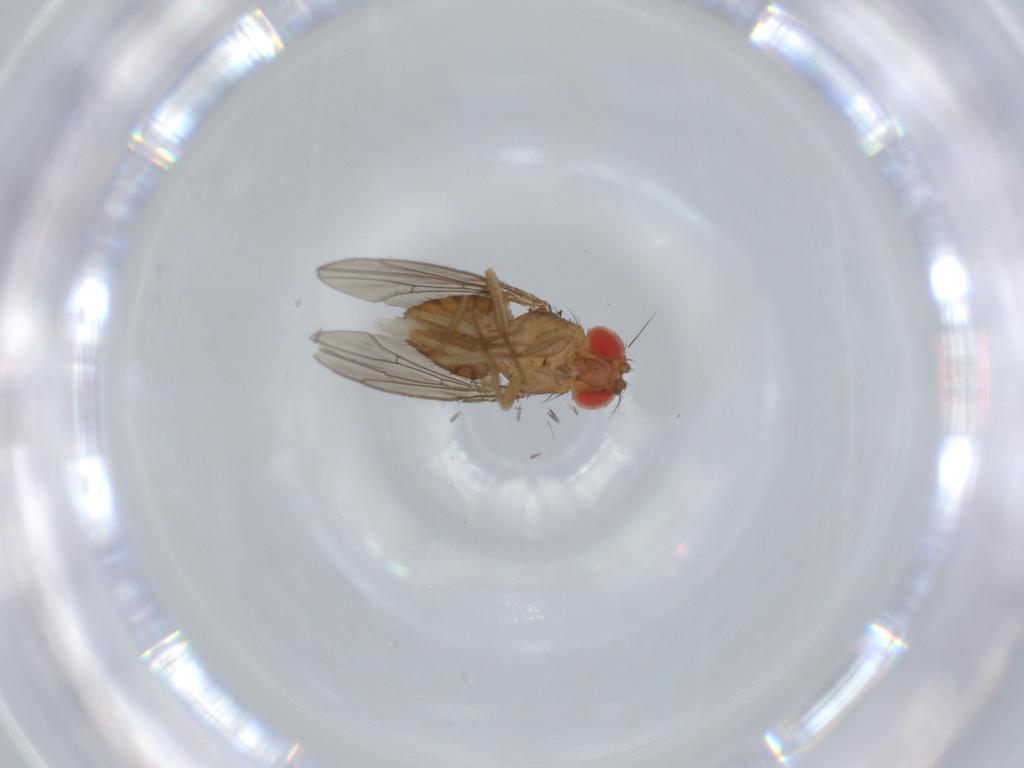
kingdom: Animalia
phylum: Arthropoda
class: Insecta
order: Diptera
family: Drosophilidae
